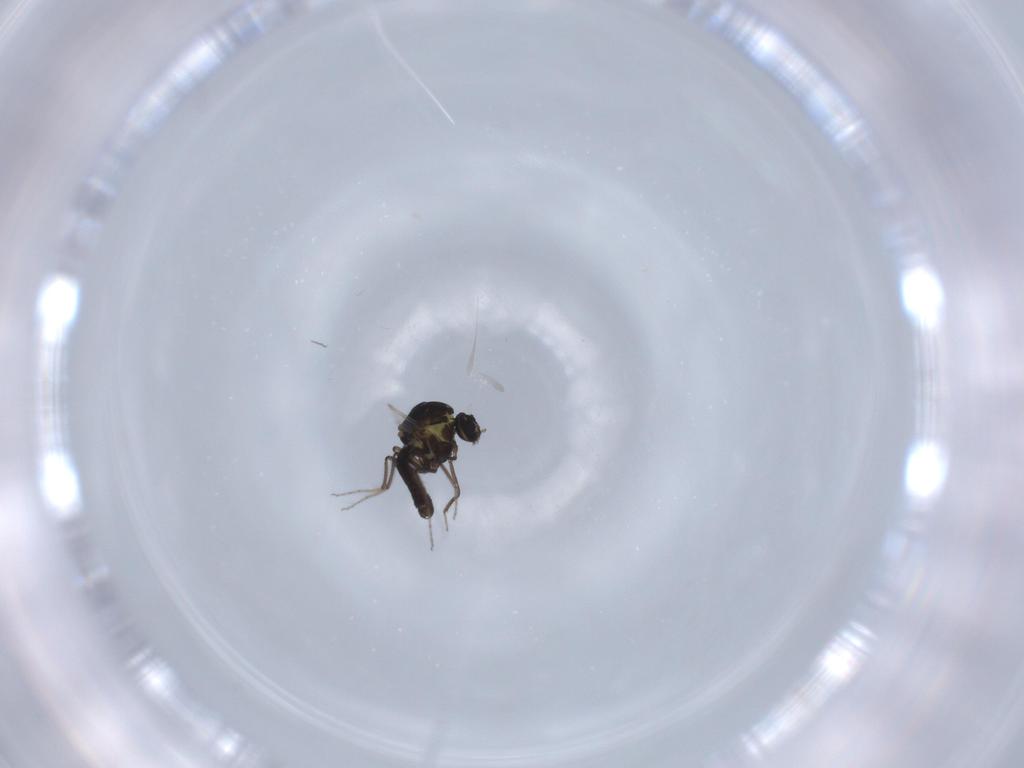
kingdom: Animalia
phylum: Arthropoda
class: Insecta
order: Diptera
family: Ceratopogonidae
